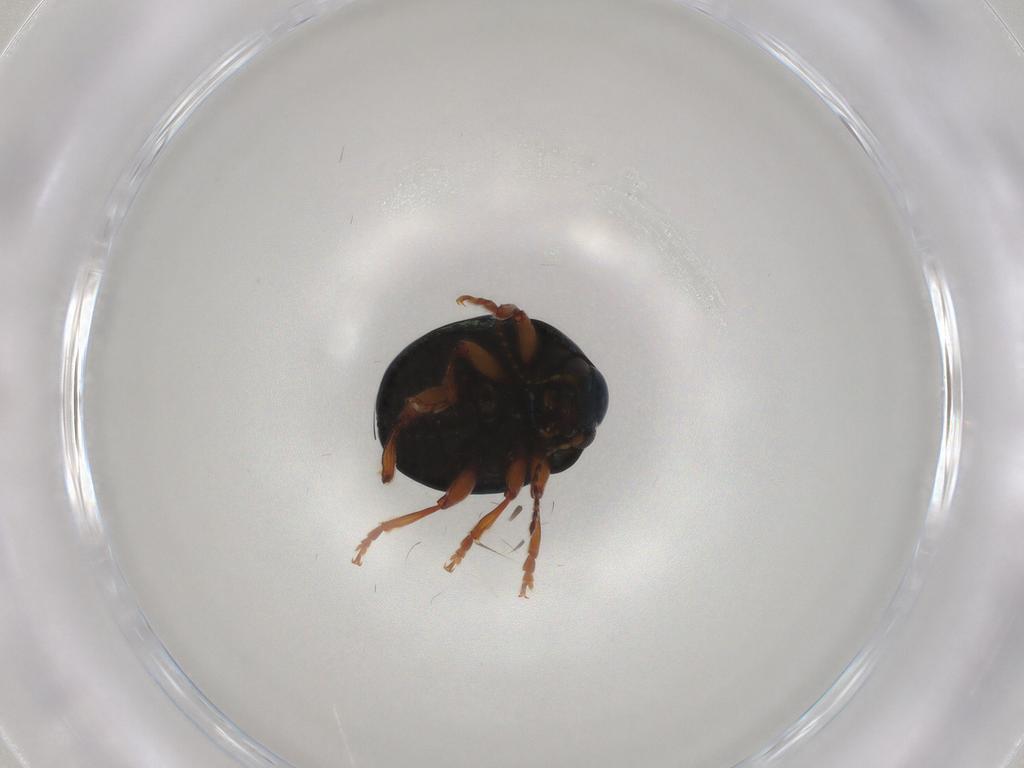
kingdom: Animalia
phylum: Arthropoda
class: Insecta
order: Coleoptera
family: Chrysomelidae
